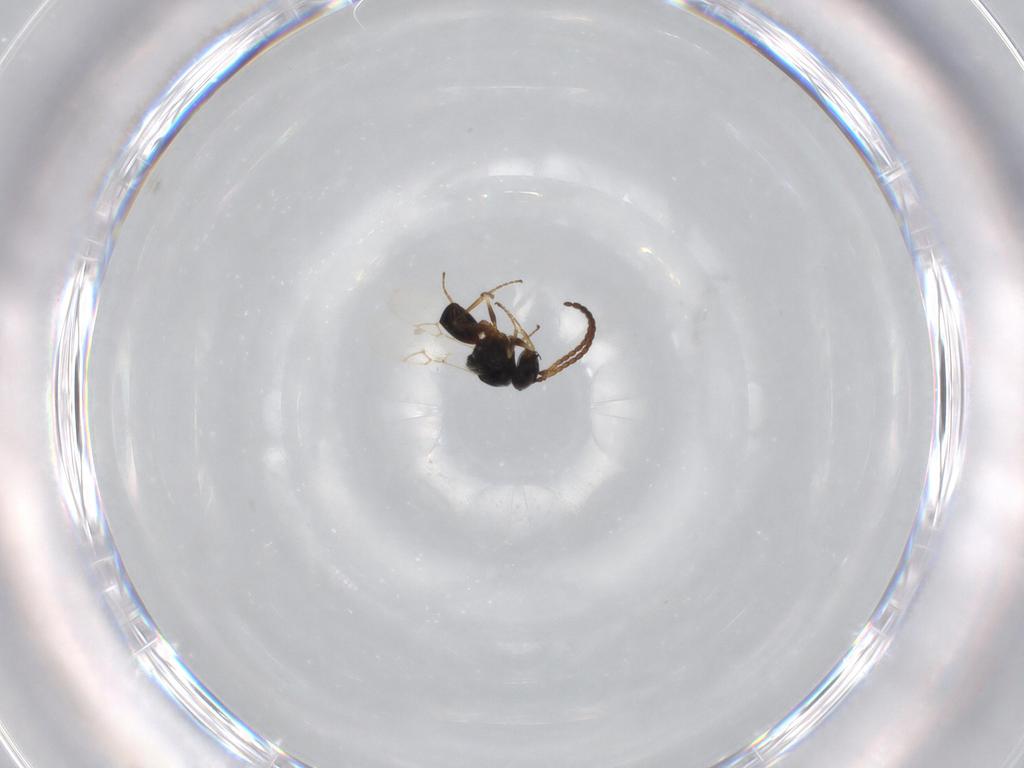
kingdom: Animalia
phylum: Arthropoda
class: Insecta
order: Hymenoptera
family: Figitidae
